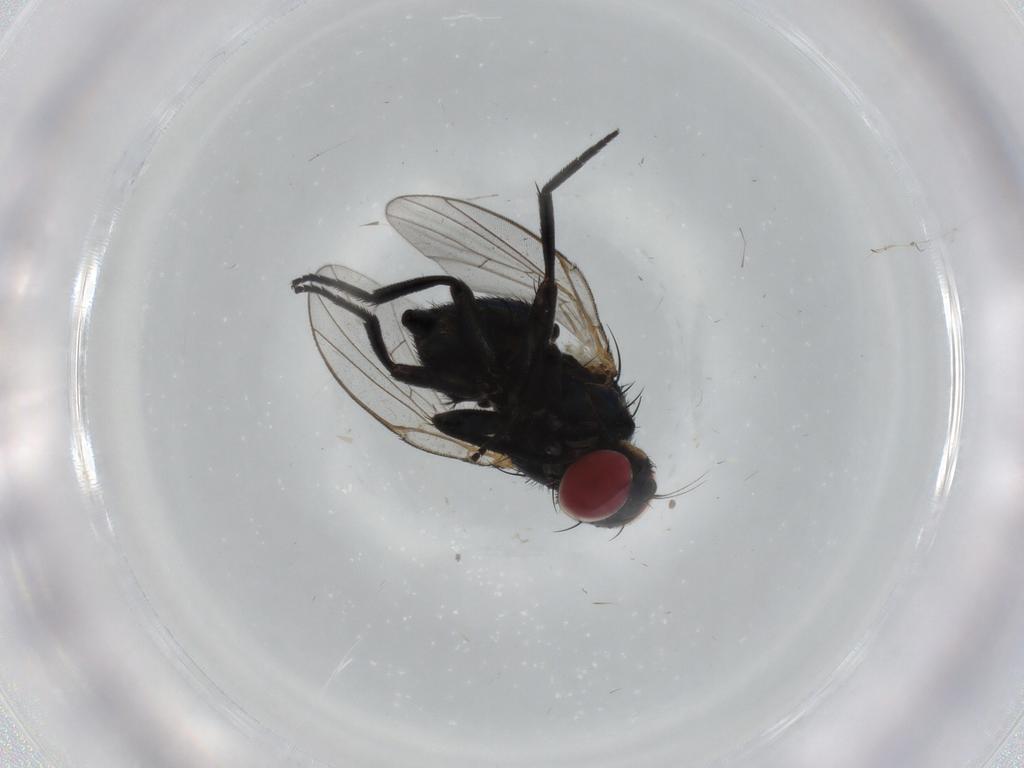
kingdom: Animalia
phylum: Arthropoda
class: Insecta
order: Diptera
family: Agromyzidae
